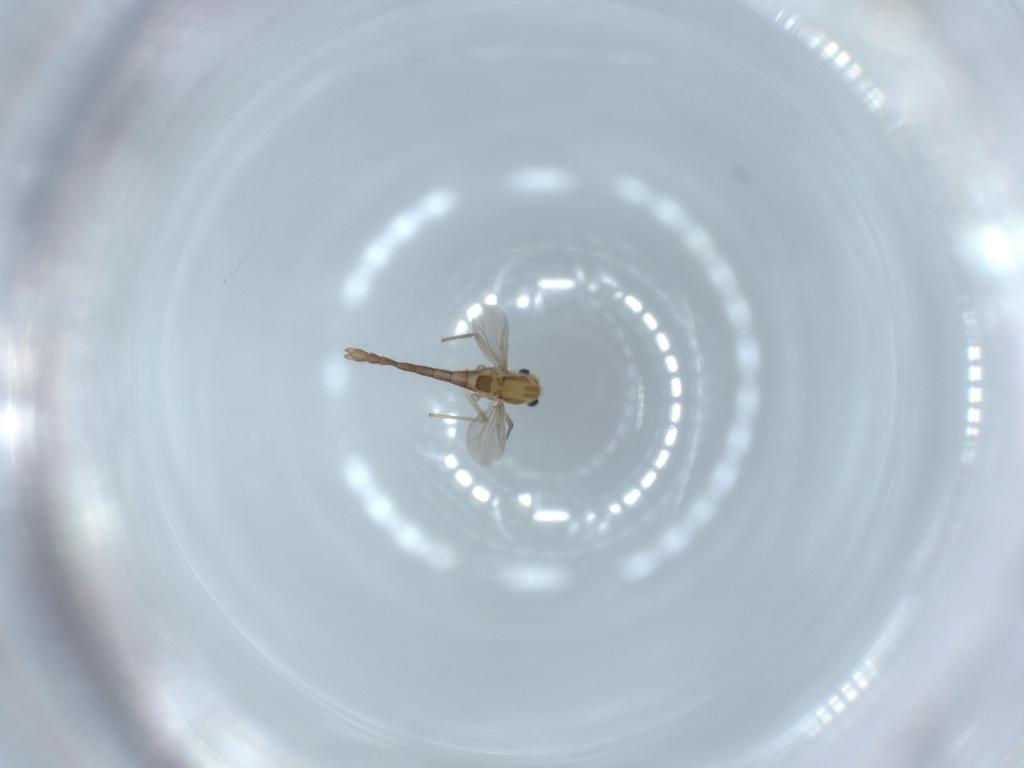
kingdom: Animalia
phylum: Arthropoda
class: Insecta
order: Diptera
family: Chironomidae
